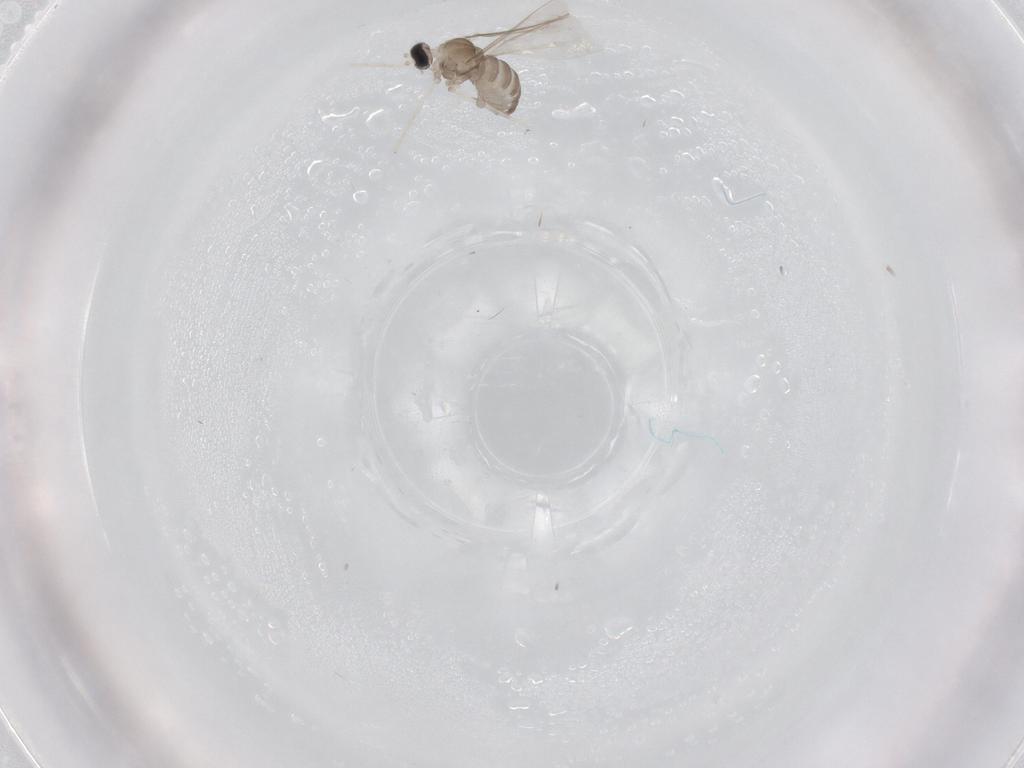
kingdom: Animalia
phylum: Arthropoda
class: Insecta
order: Diptera
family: Cecidomyiidae
